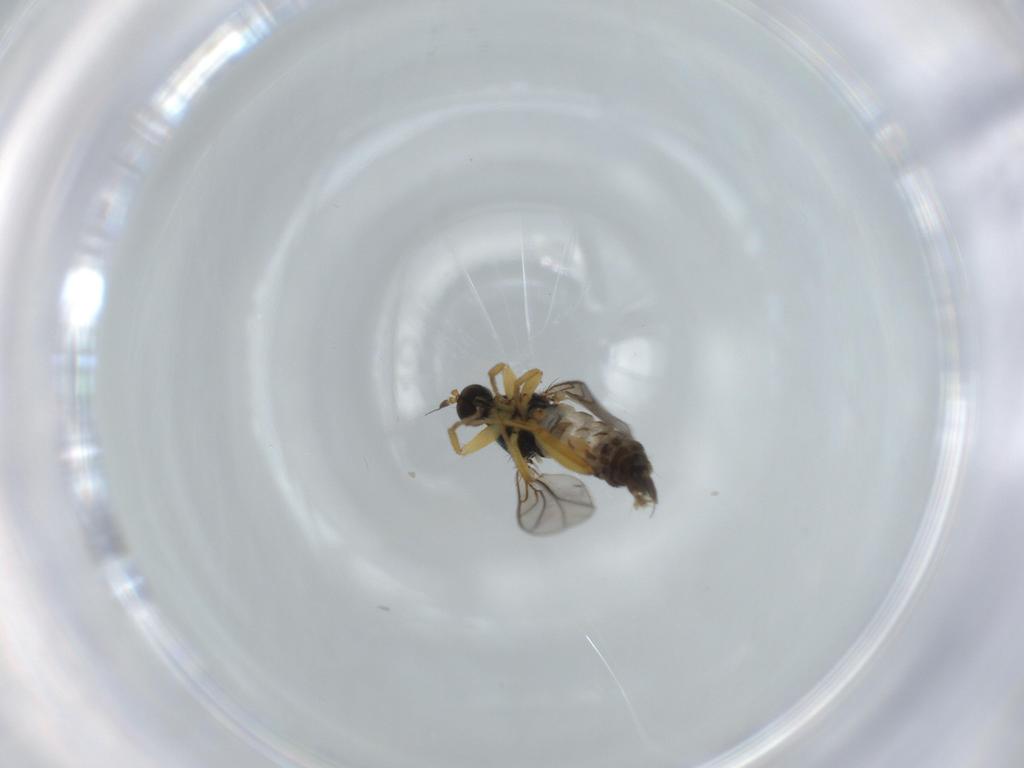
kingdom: Animalia
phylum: Arthropoda
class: Insecta
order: Diptera
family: Hybotidae
